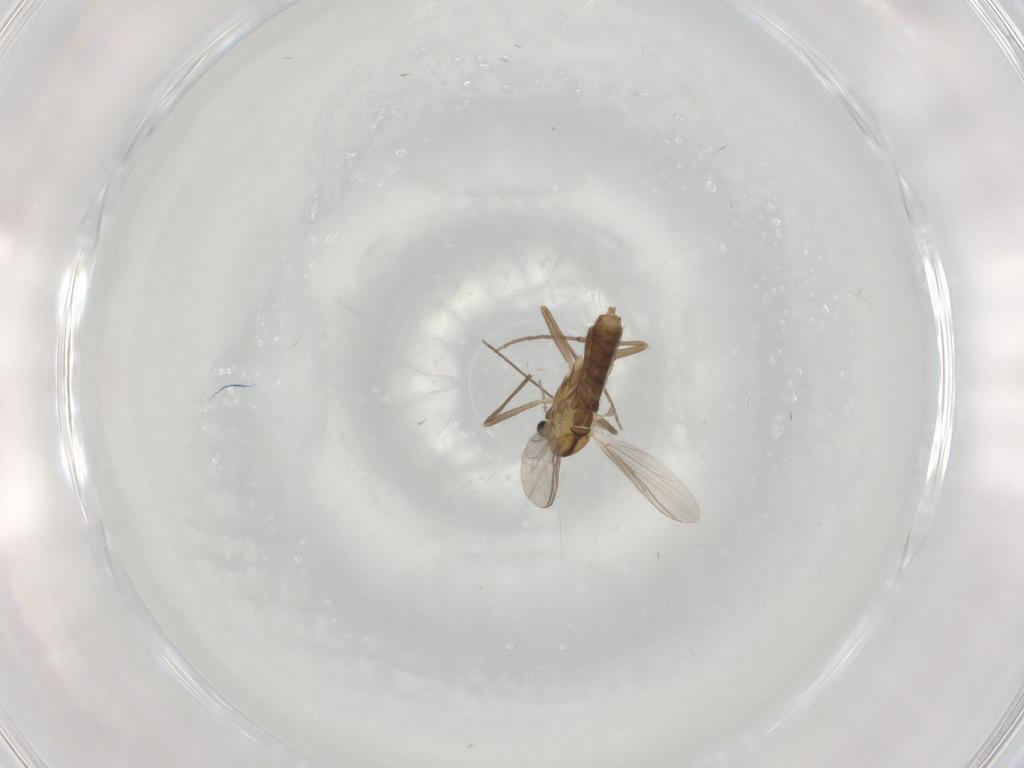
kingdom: Animalia
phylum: Arthropoda
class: Insecta
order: Diptera
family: Chironomidae
